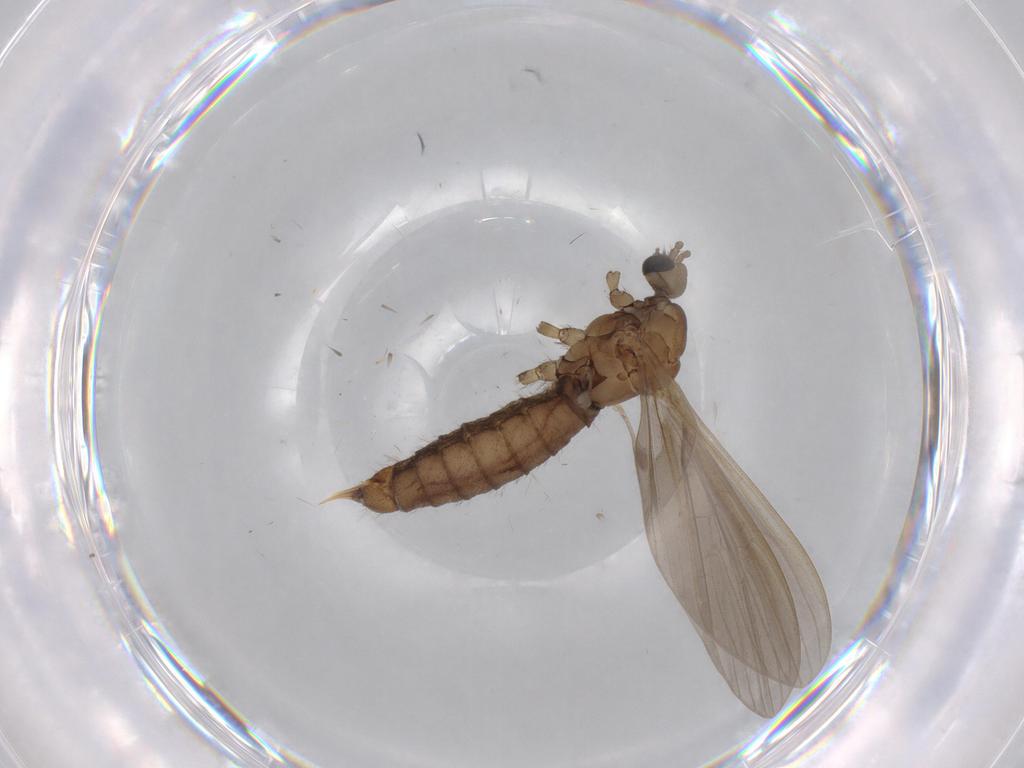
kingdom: Animalia
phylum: Arthropoda
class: Insecta
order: Diptera
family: Limoniidae
